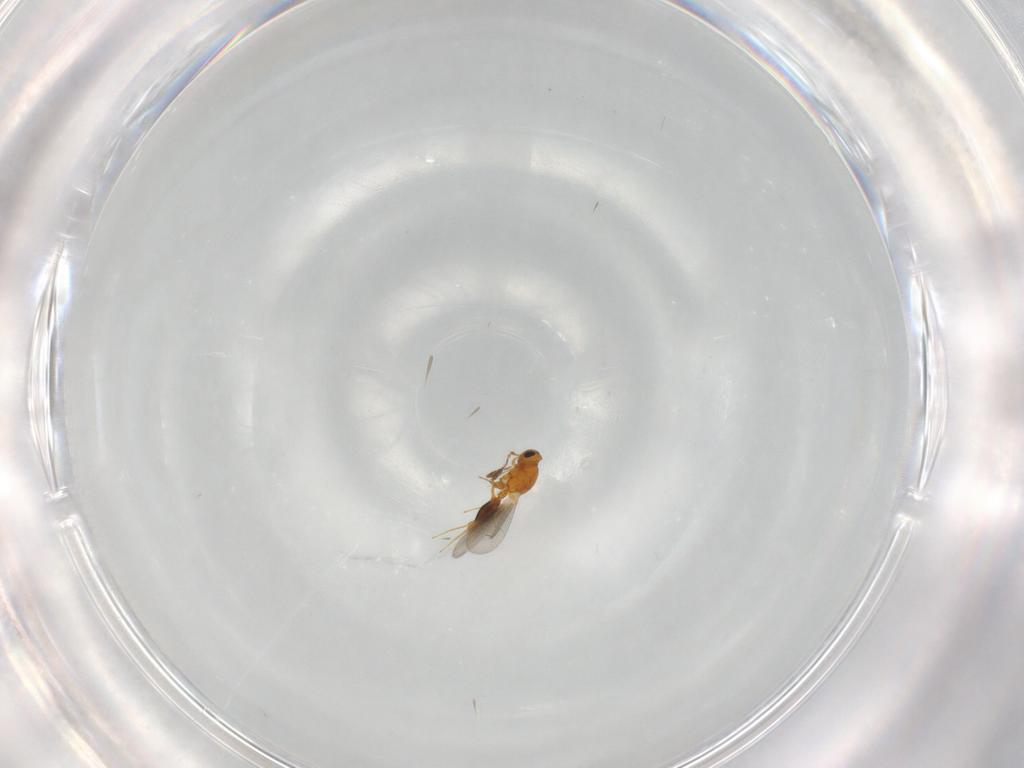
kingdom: Animalia
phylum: Arthropoda
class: Insecta
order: Hymenoptera
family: Platygastridae
